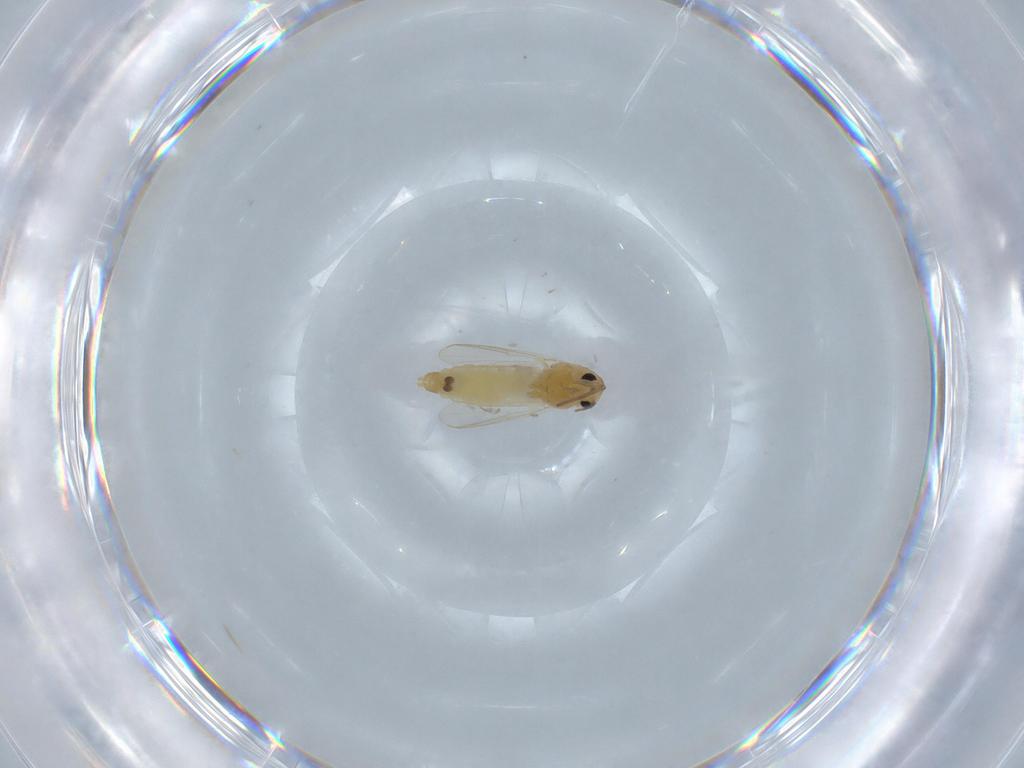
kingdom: Animalia
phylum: Arthropoda
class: Insecta
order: Diptera
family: Chironomidae
